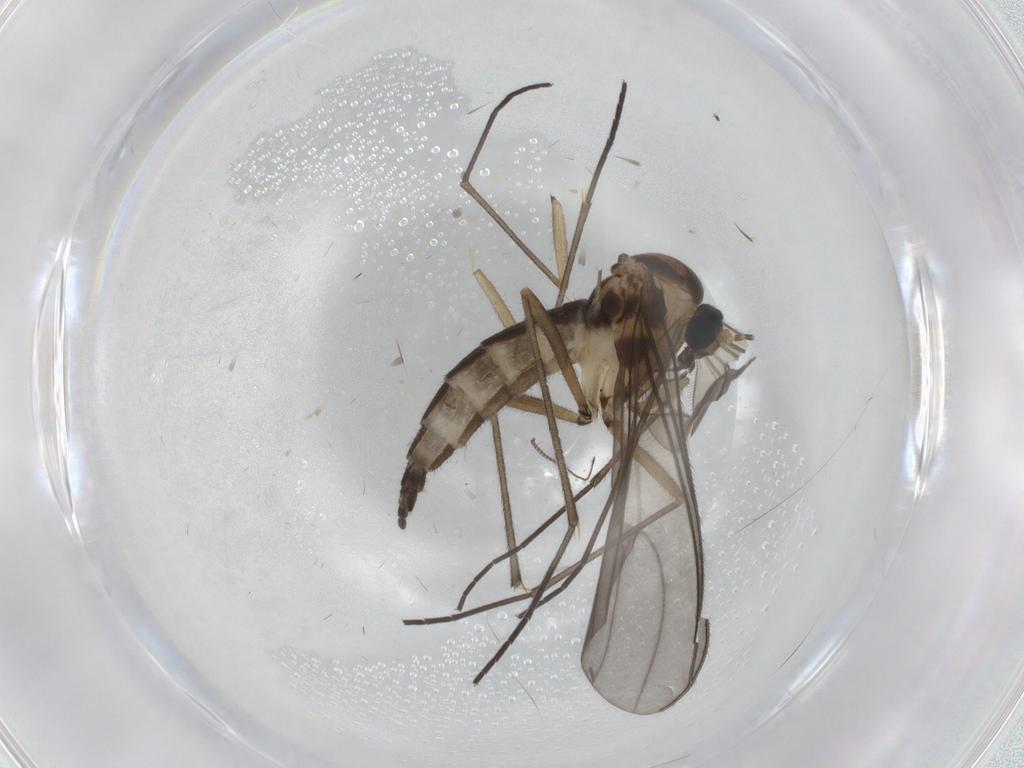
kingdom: Animalia
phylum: Arthropoda
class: Insecta
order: Diptera
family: Sciaridae
